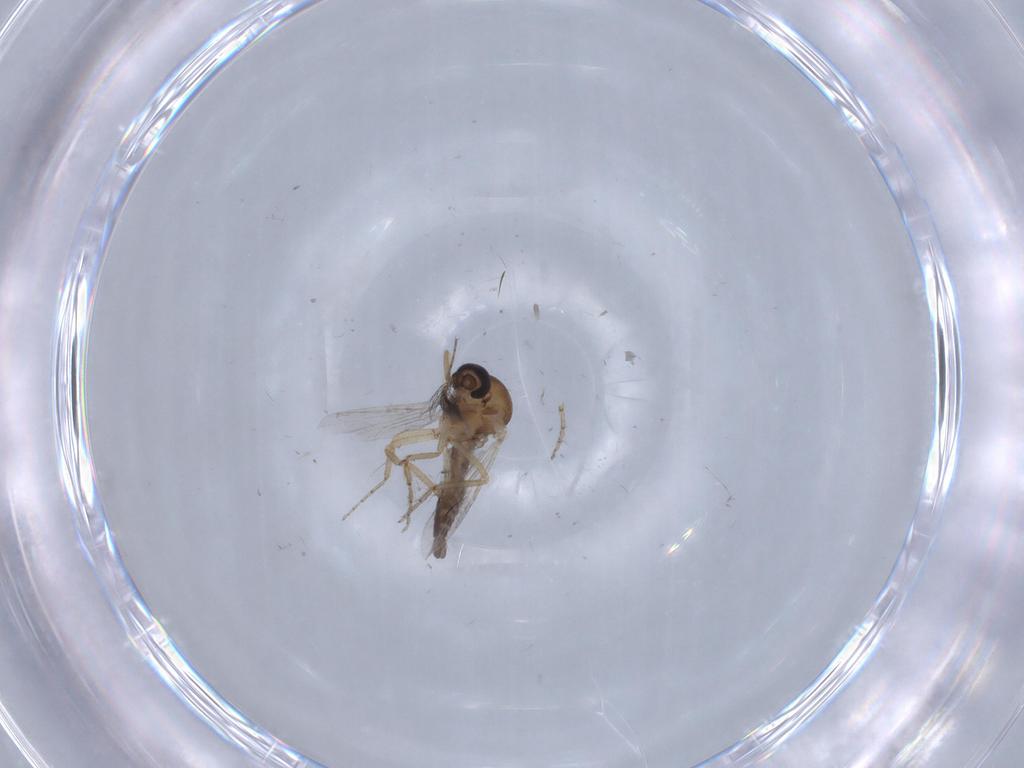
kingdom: Animalia
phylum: Arthropoda
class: Insecta
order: Diptera
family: Ceratopogonidae
